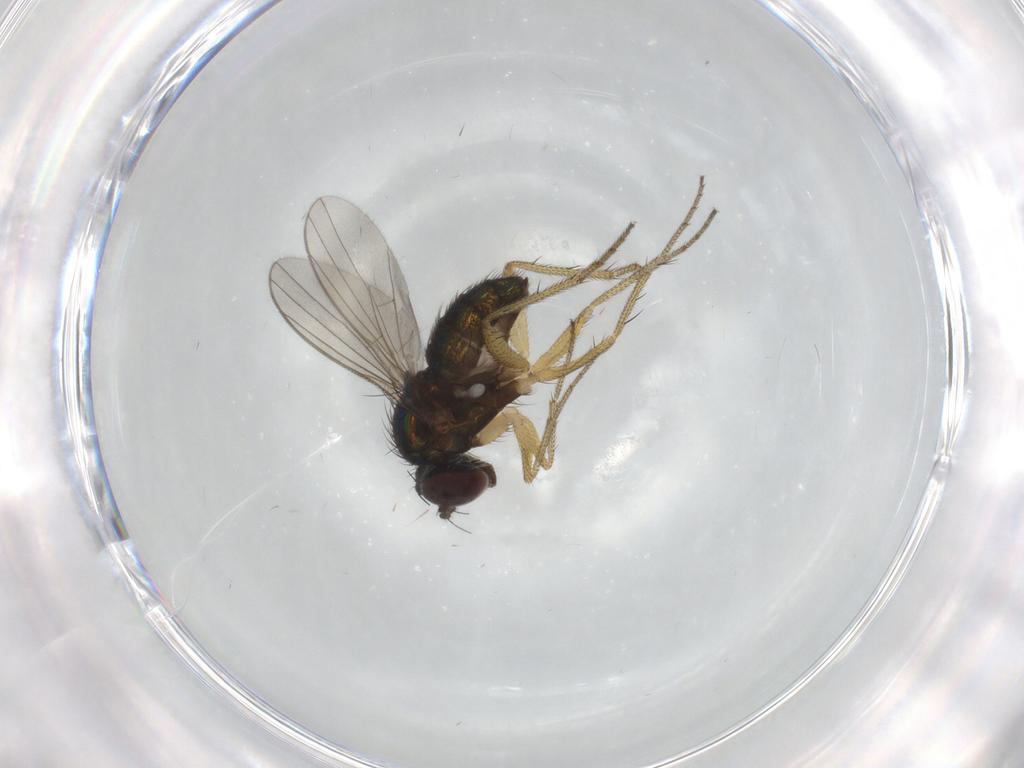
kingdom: Animalia
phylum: Arthropoda
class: Insecta
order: Diptera
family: Dolichopodidae
